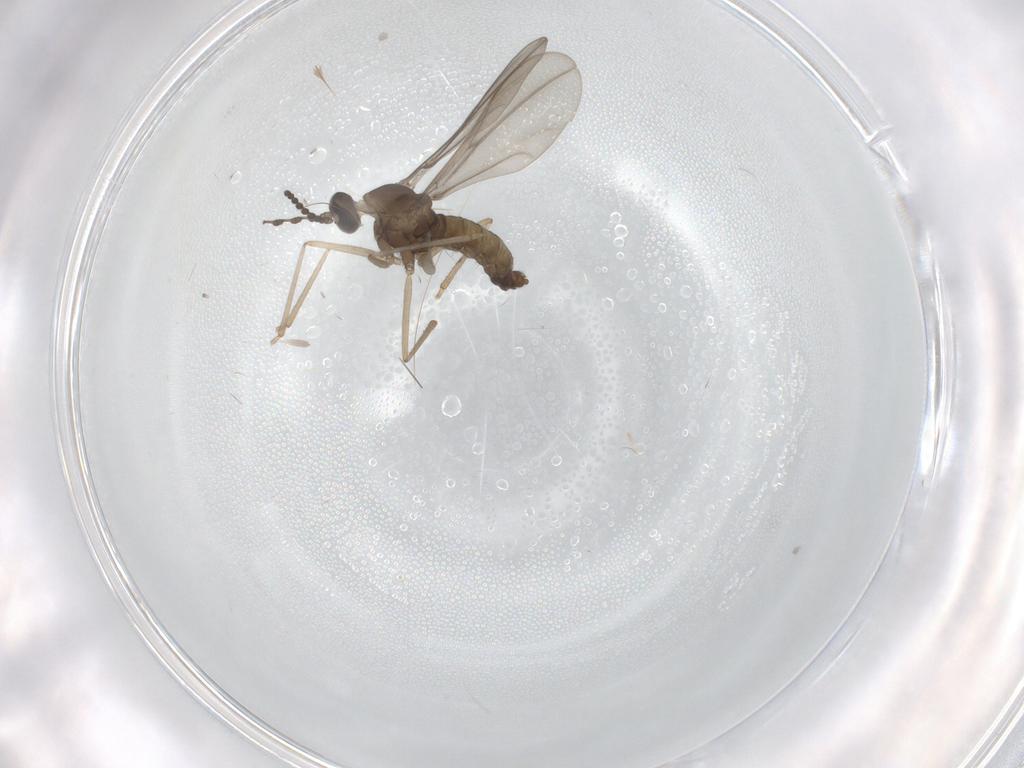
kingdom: Animalia
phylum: Arthropoda
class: Insecta
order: Diptera
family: Cecidomyiidae
